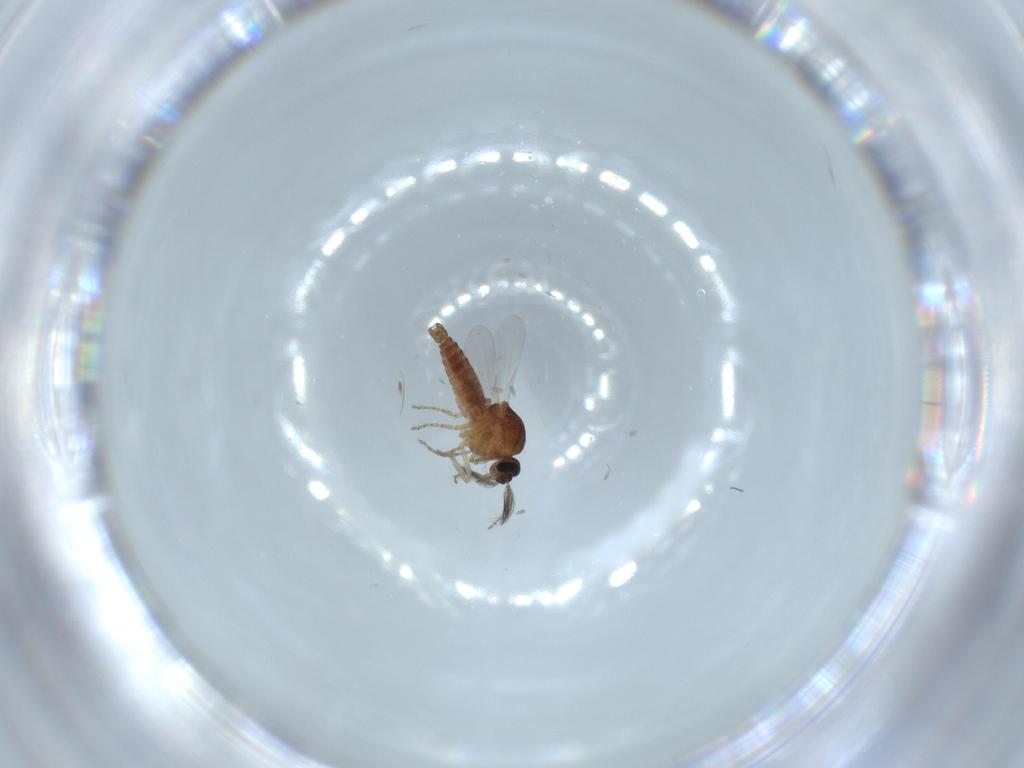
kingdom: Animalia
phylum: Arthropoda
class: Insecta
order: Diptera
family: Ceratopogonidae
